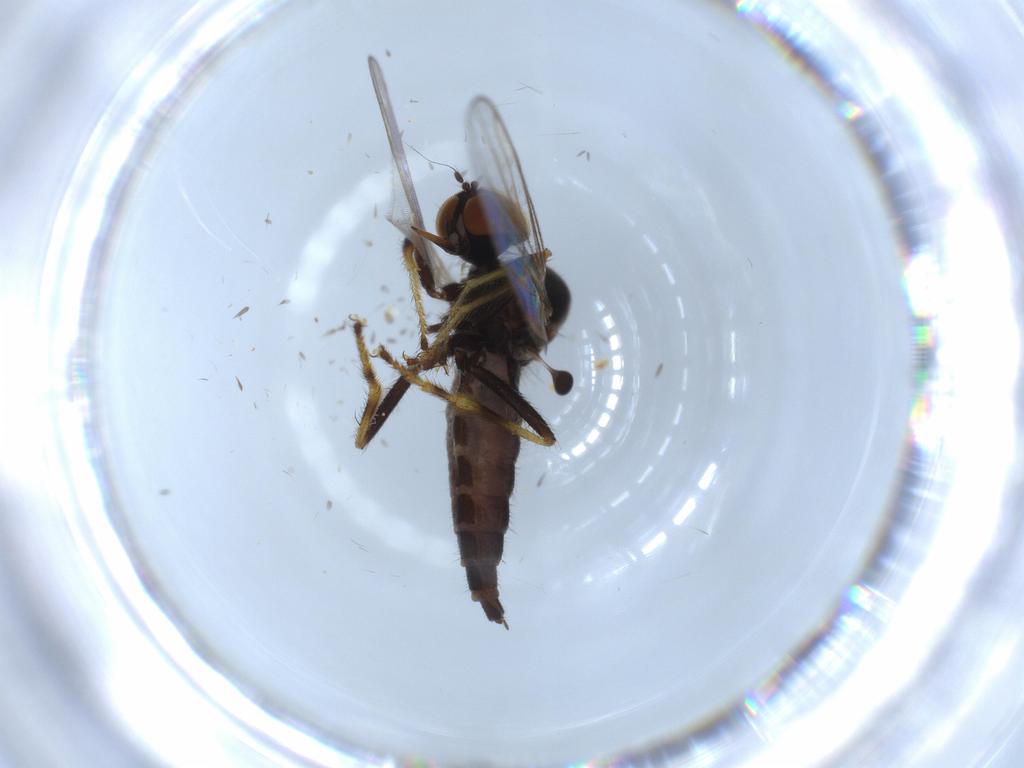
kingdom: Animalia
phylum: Arthropoda
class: Insecta
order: Diptera
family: Hybotidae
